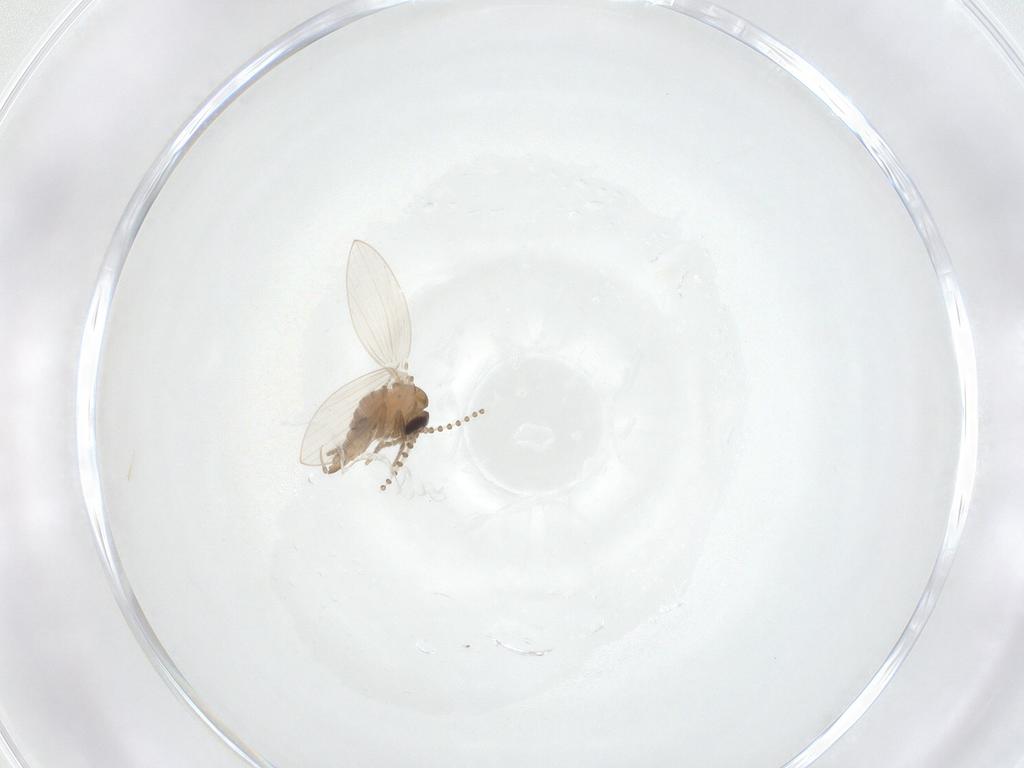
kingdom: Animalia
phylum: Arthropoda
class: Insecta
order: Diptera
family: Psychodidae
